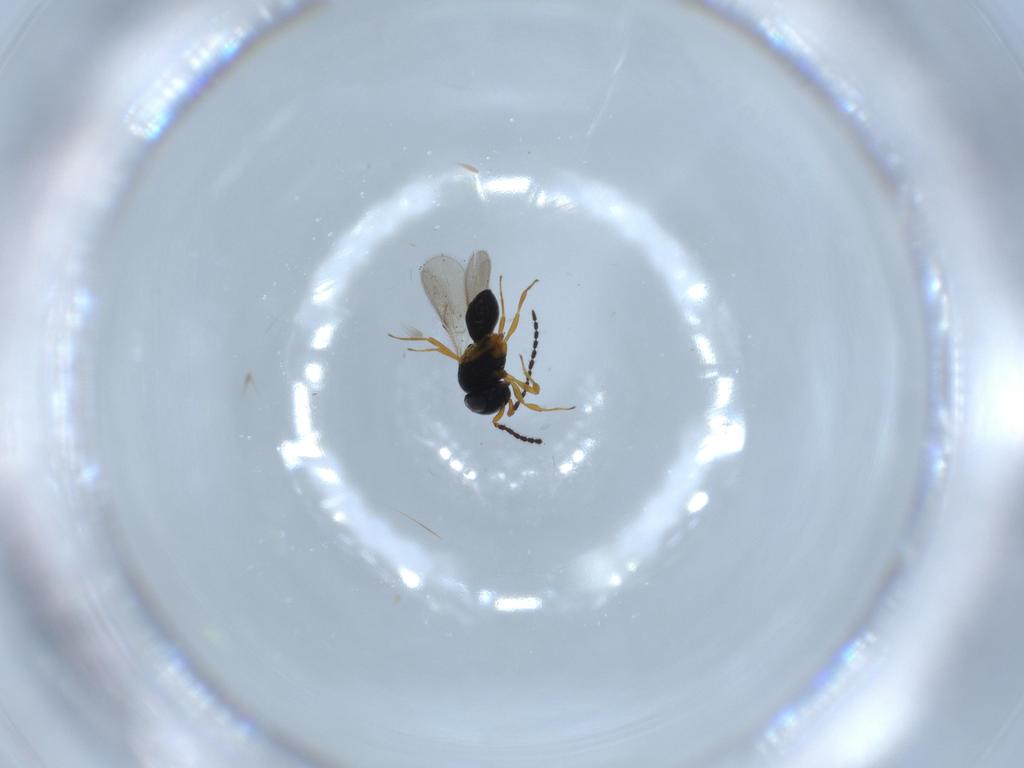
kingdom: Animalia
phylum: Arthropoda
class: Insecta
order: Hymenoptera
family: Scelionidae
